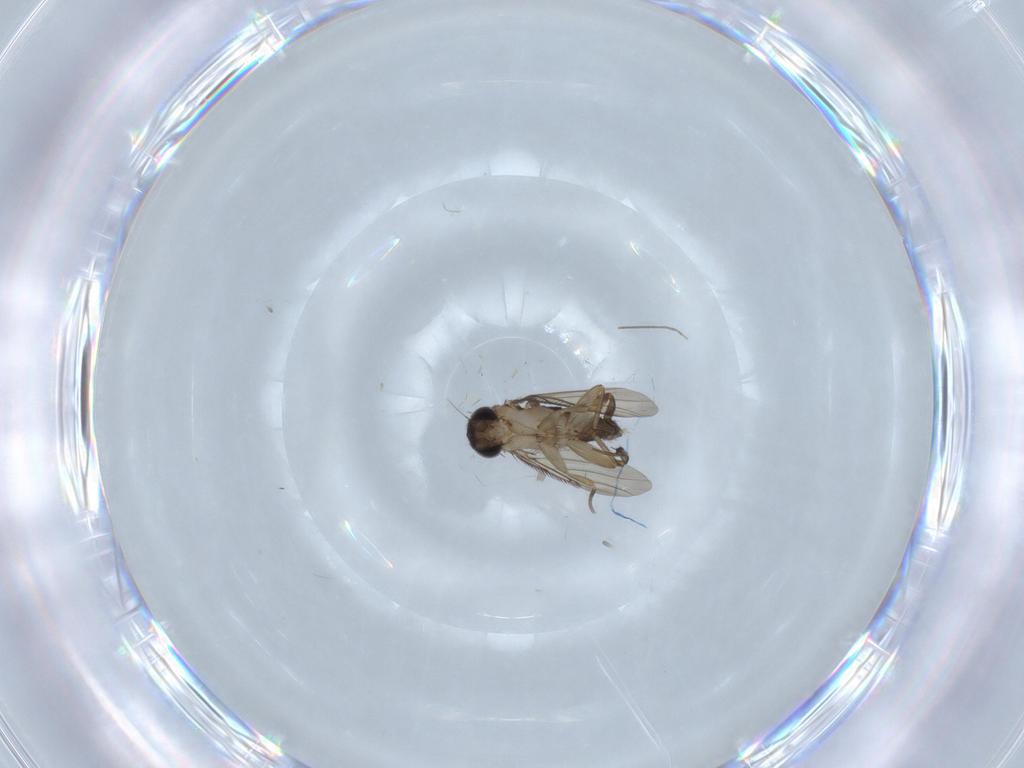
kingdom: Animalia
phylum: Arthropoda
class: Insecta
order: Diptera
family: Phoridae
